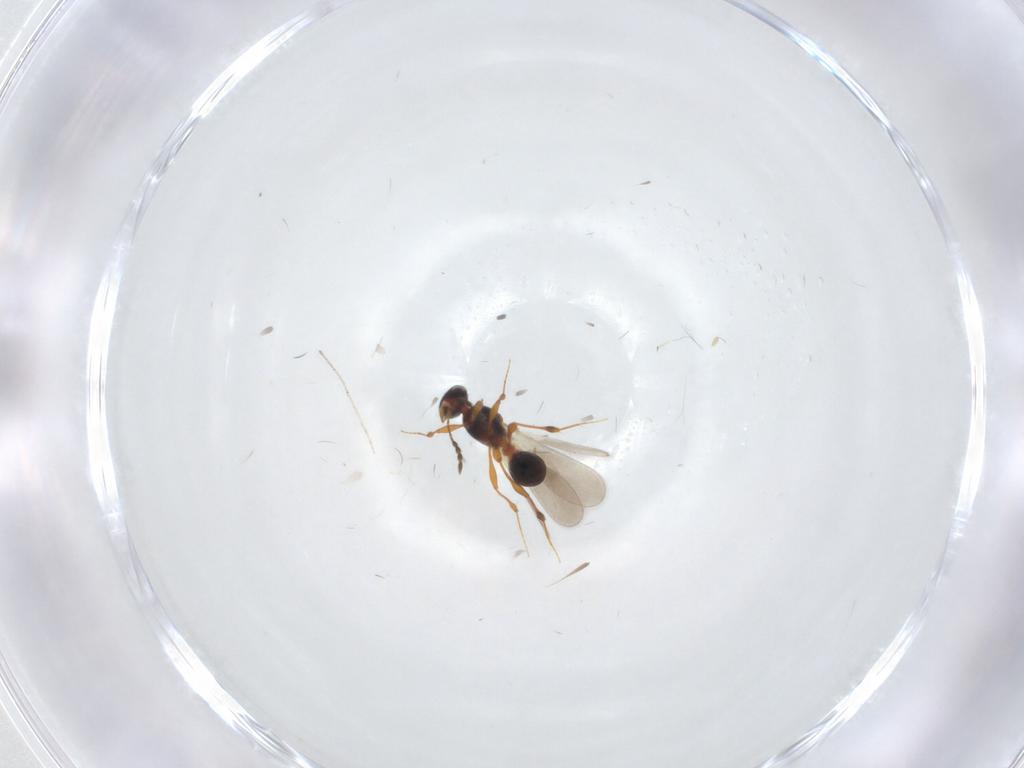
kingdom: Animalia
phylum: Arthropoda
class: Insecta
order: Hymenoptera
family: Platygastridae
